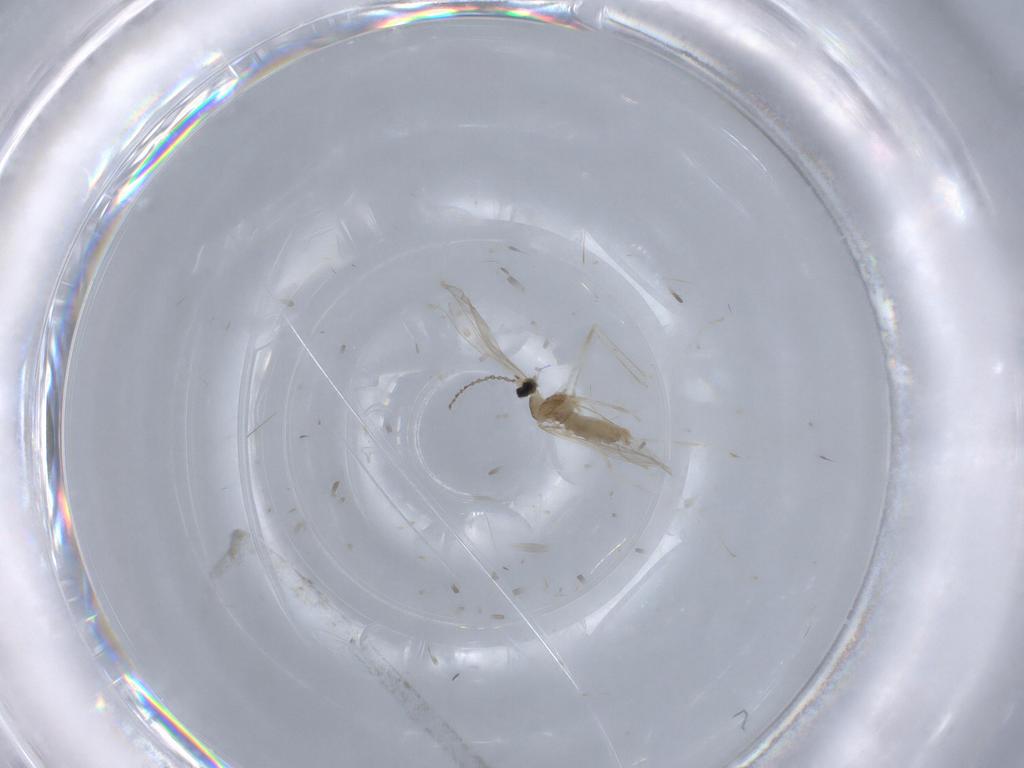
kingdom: Animalia
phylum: Arthropoda
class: Insecta
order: Diptera
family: Cecidomyiidae
